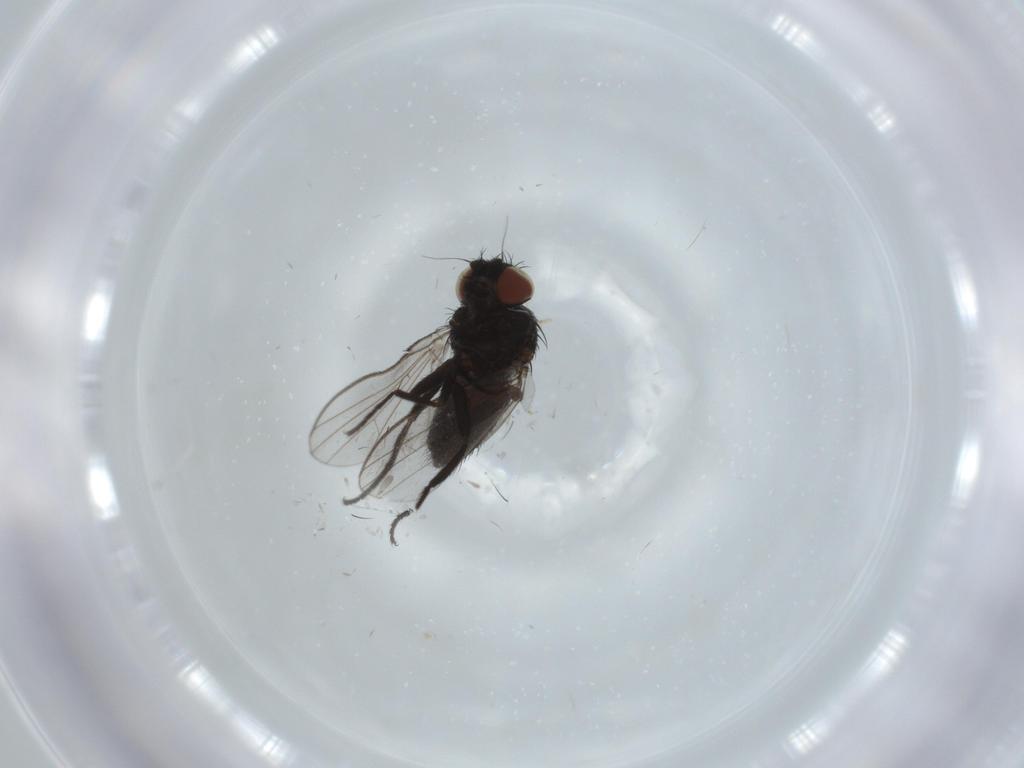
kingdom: Animalia
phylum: Arthropoda
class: Insecta
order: Diptera
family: Milichiidae
